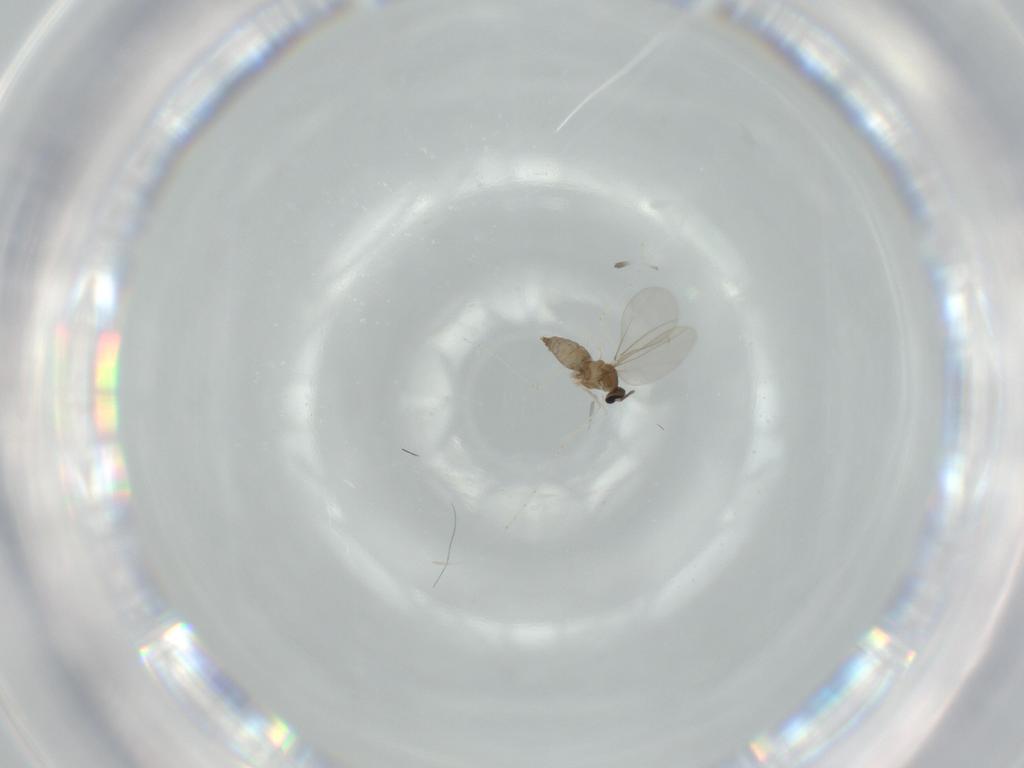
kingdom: Animalia
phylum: Arthropoda
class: Insecta
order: Diptera
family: Cecidomyiidae
